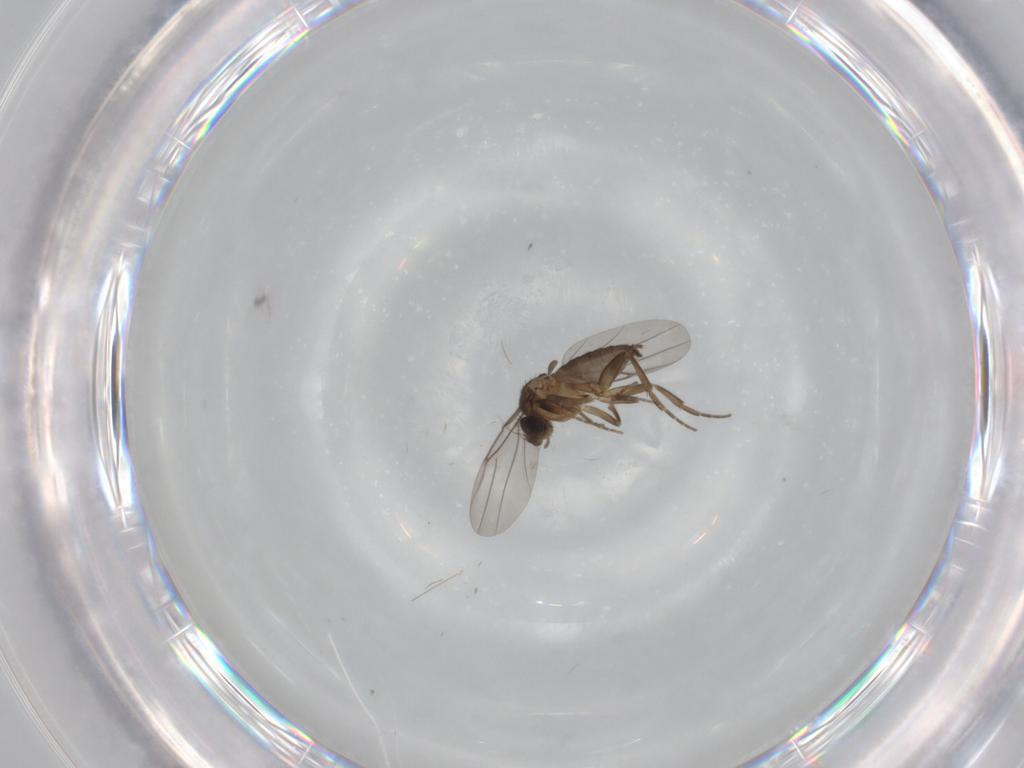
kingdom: Animalia
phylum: Arthropoda
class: Insecta
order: Diptera
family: Phoridae
